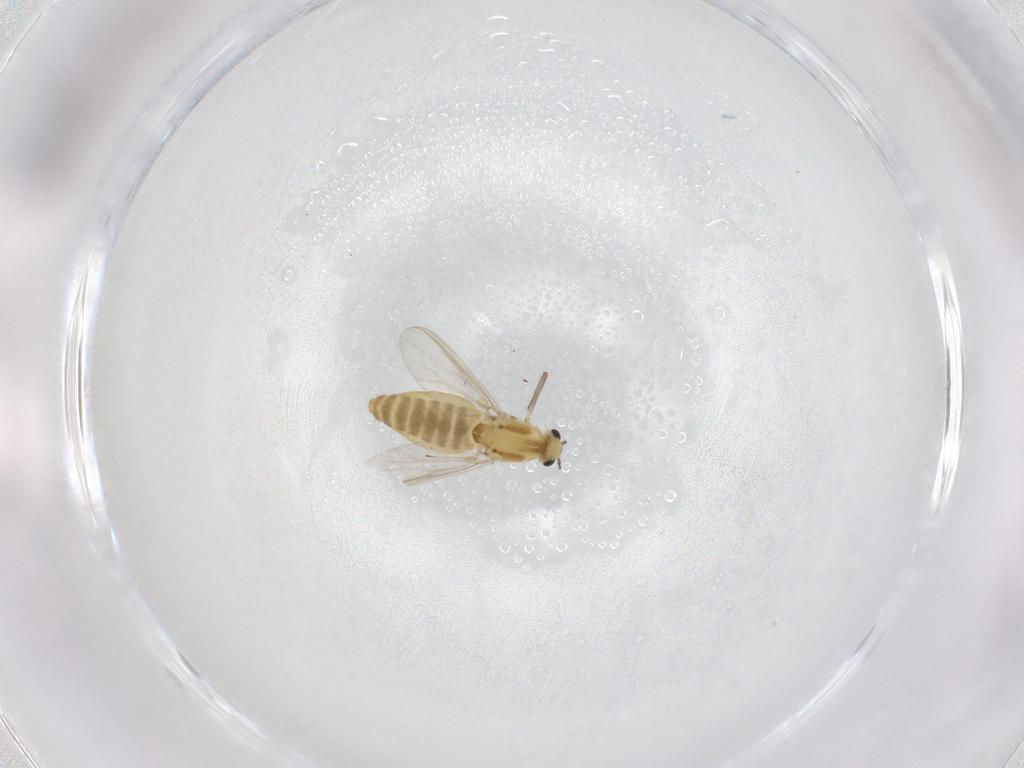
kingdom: Animalia
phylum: Arthropoda
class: Insecta
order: Diptera
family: Chironomidae
